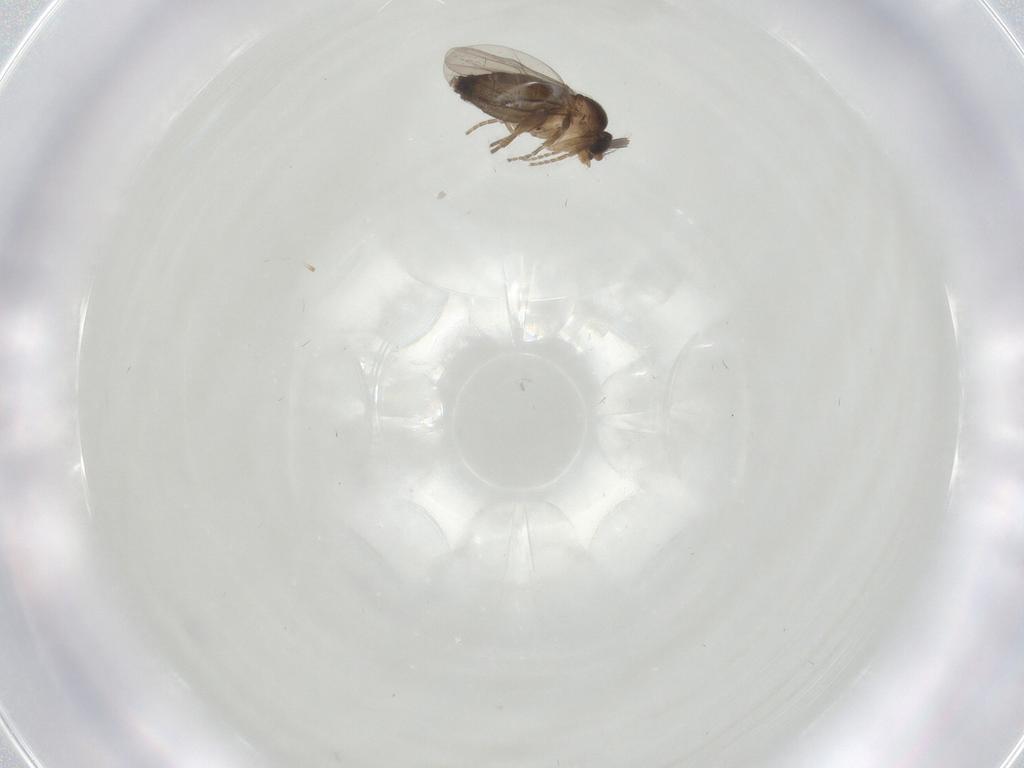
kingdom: Animalia
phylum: Arthropoda
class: Insecta
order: Diptera
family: Phoridae
